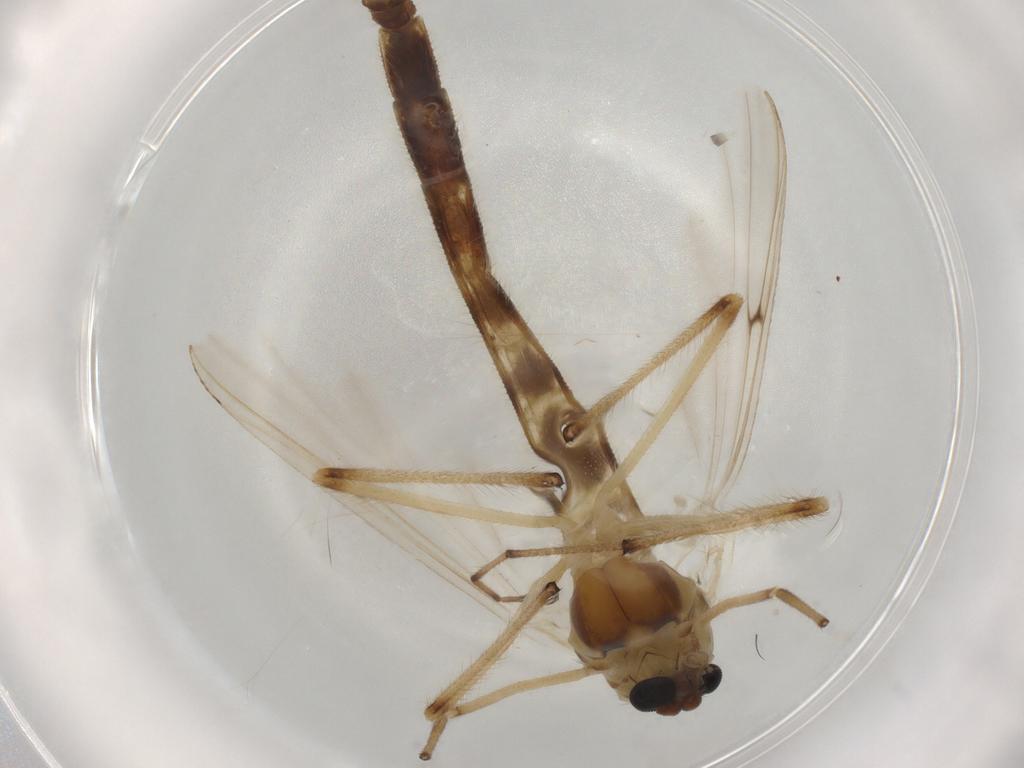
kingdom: Animalia
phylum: Arthropoda
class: Insecta
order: Diptera
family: Chironomidae
